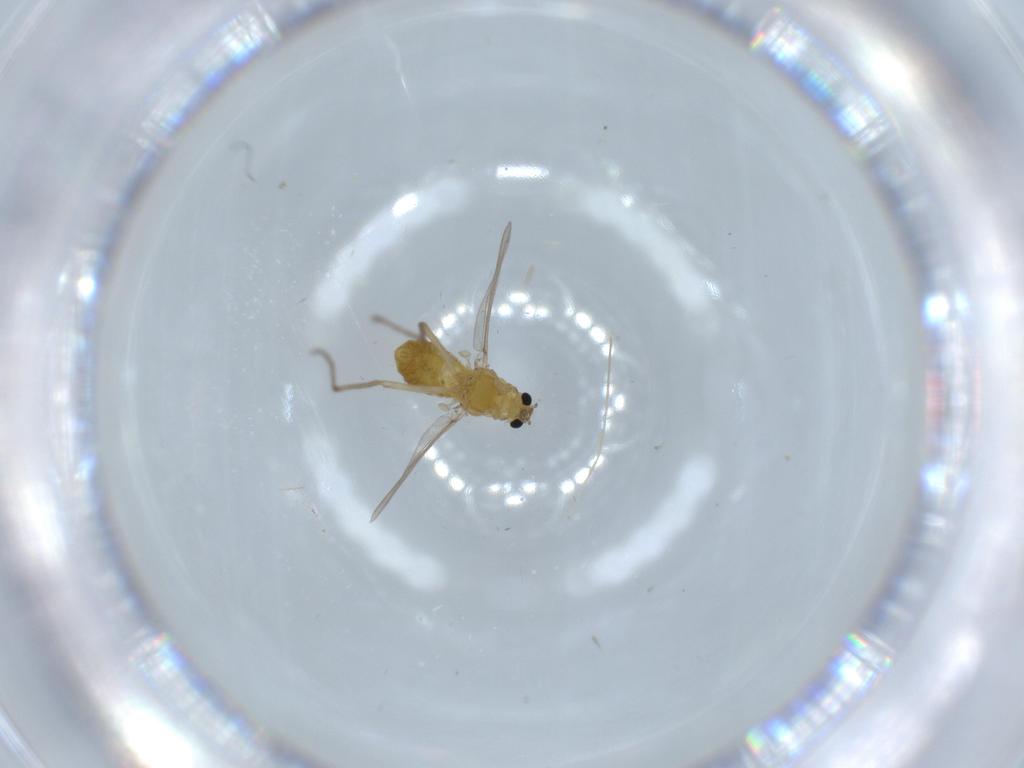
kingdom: Animalia
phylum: Arthropoda
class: Insecta
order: Diptera
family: Chironomidae
